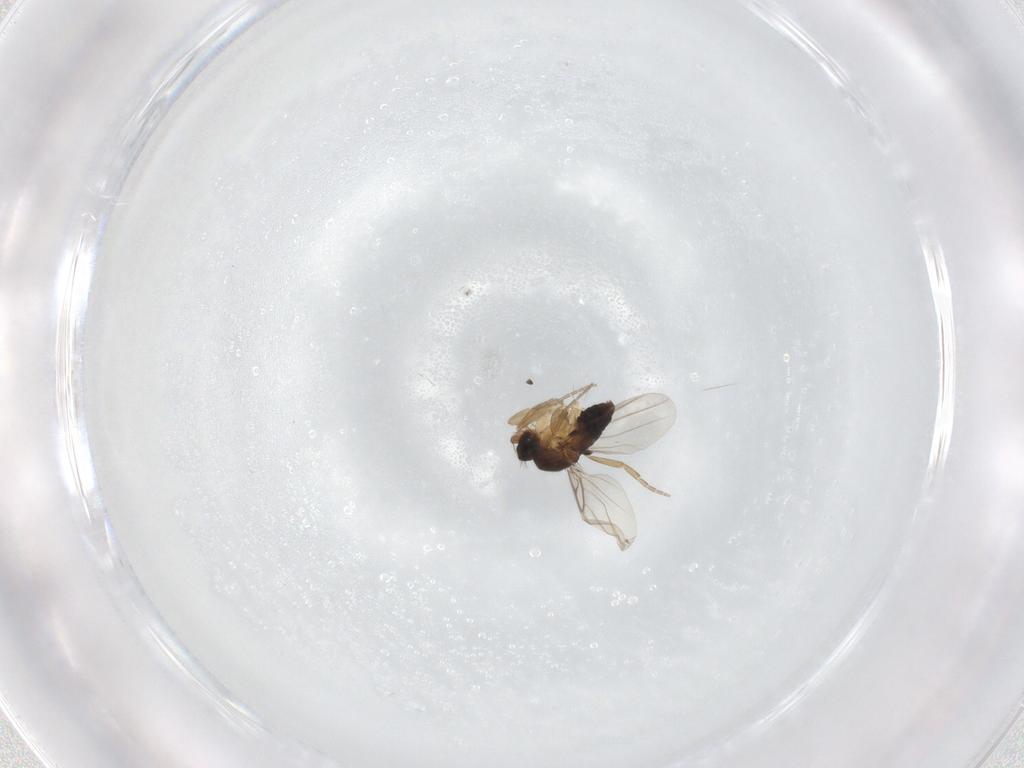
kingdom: Animalia
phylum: Arthropoda
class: Insecta
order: Diptera
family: Phoridae
